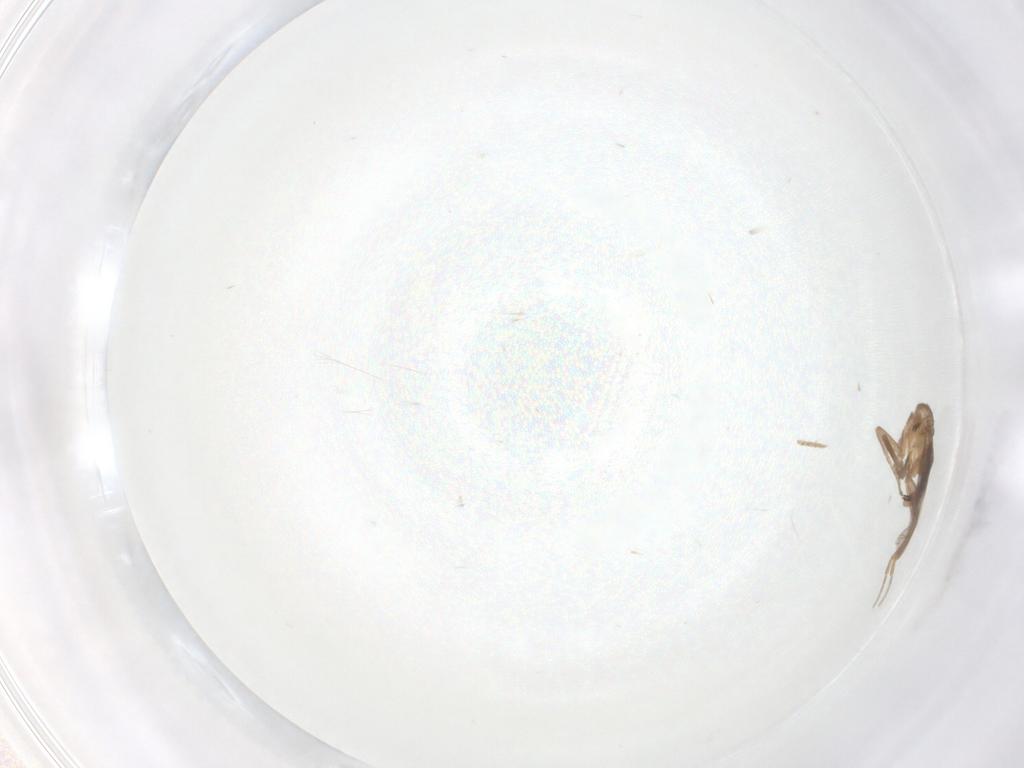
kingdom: Animalia
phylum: Arthropoda
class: Insecta
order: Diptera
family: Ceratopogonidae
